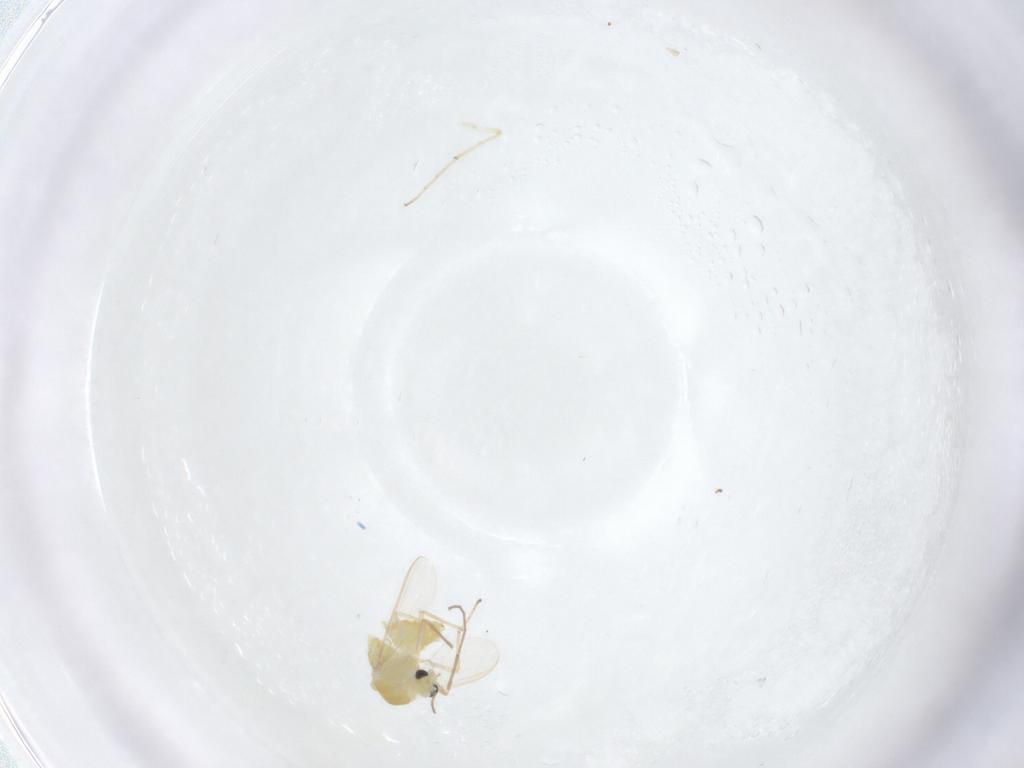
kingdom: Animalia
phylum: Arthropoda
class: Insecta
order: Diptera
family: Chironomidae
